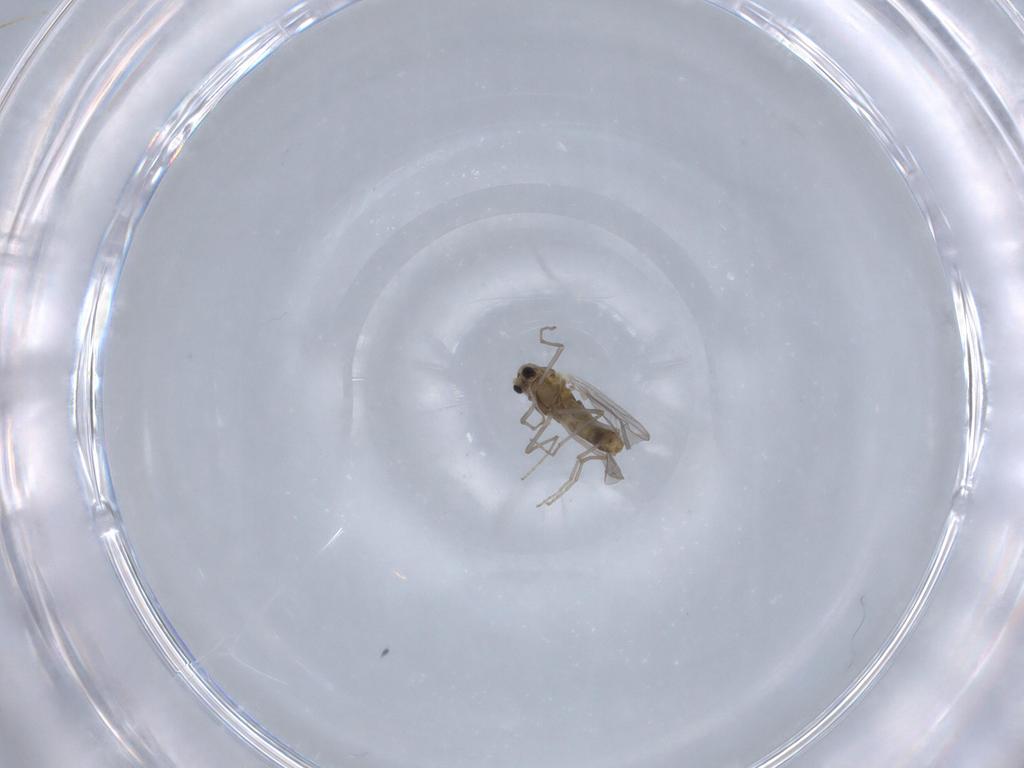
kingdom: Animalia
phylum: Arthropoda
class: Insecta
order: Diptera
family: Chironomidae
